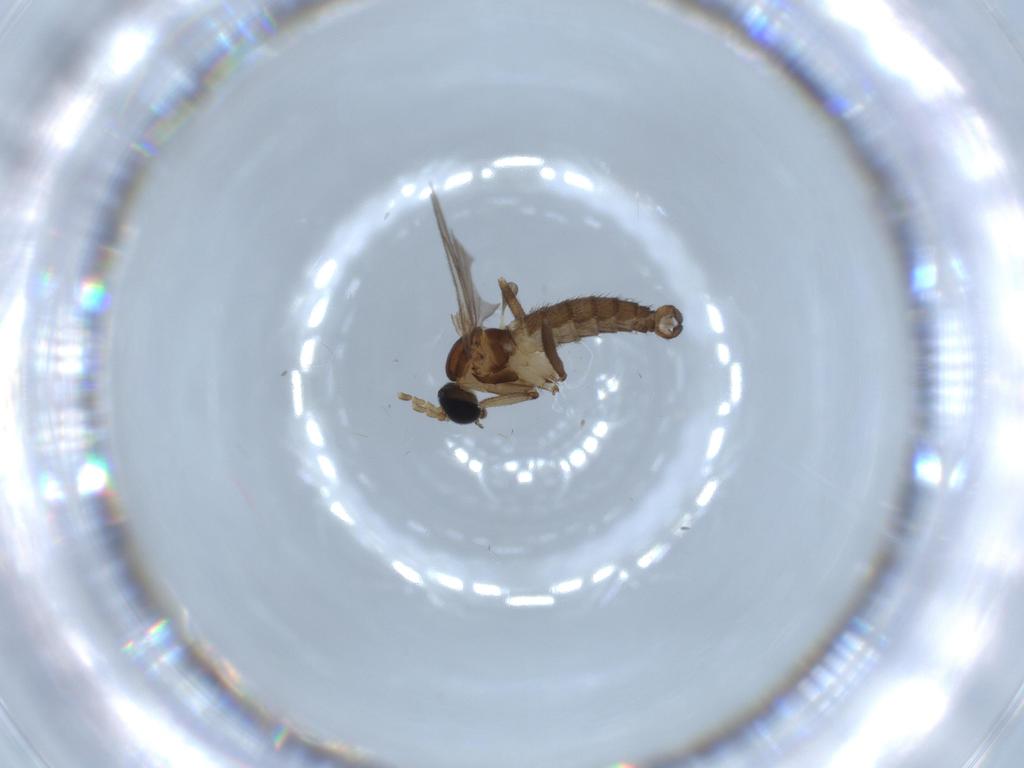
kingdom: Animalia
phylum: Arthropoda
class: Insecta
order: Diptera
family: Sciaridae
